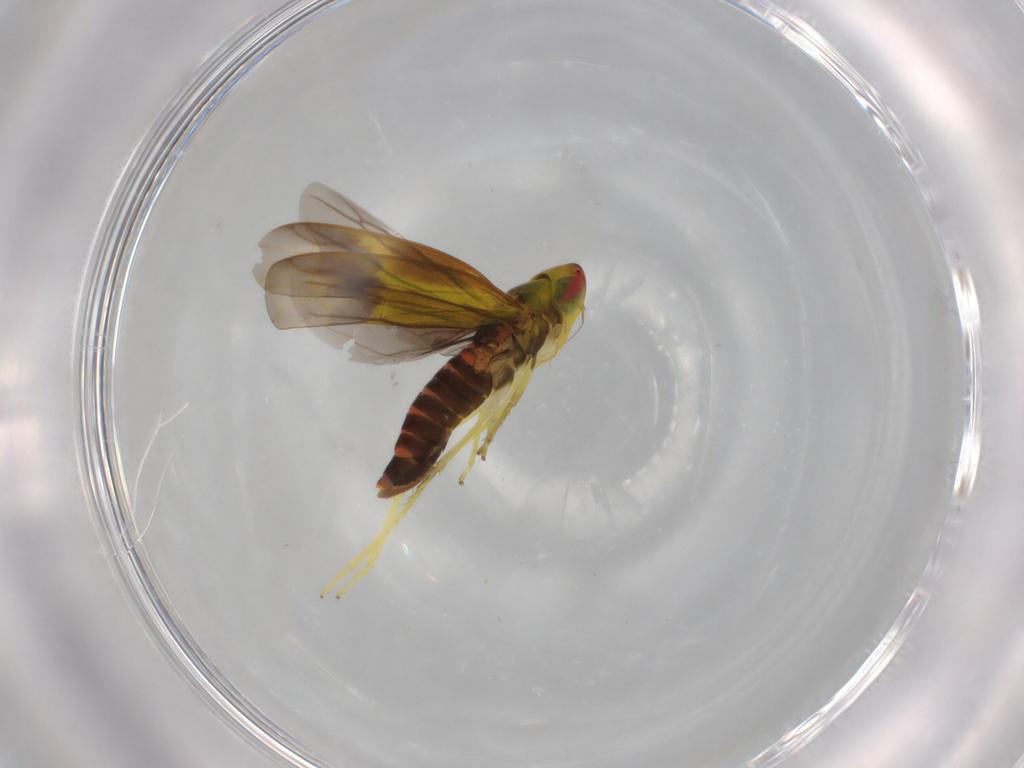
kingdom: Animalia
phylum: Arthropoda
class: Insecta
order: Hemiptera
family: Cicadellidae
